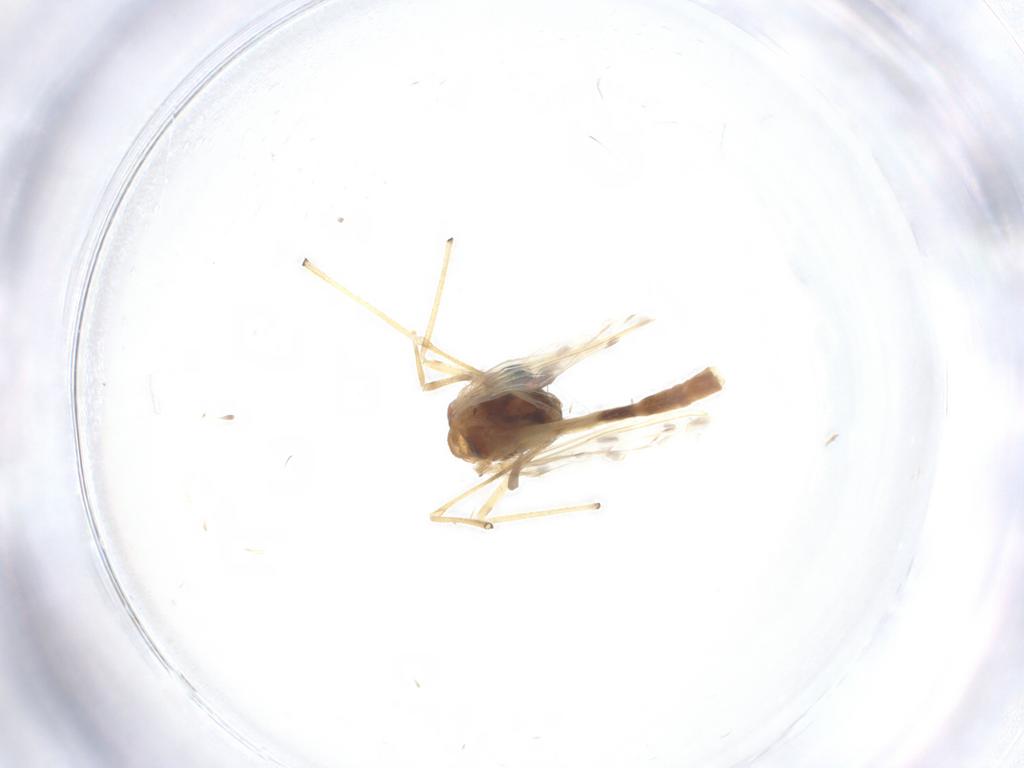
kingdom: Animalia
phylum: Arthropoda
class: Insecta
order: Diptera
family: Chironomidae
